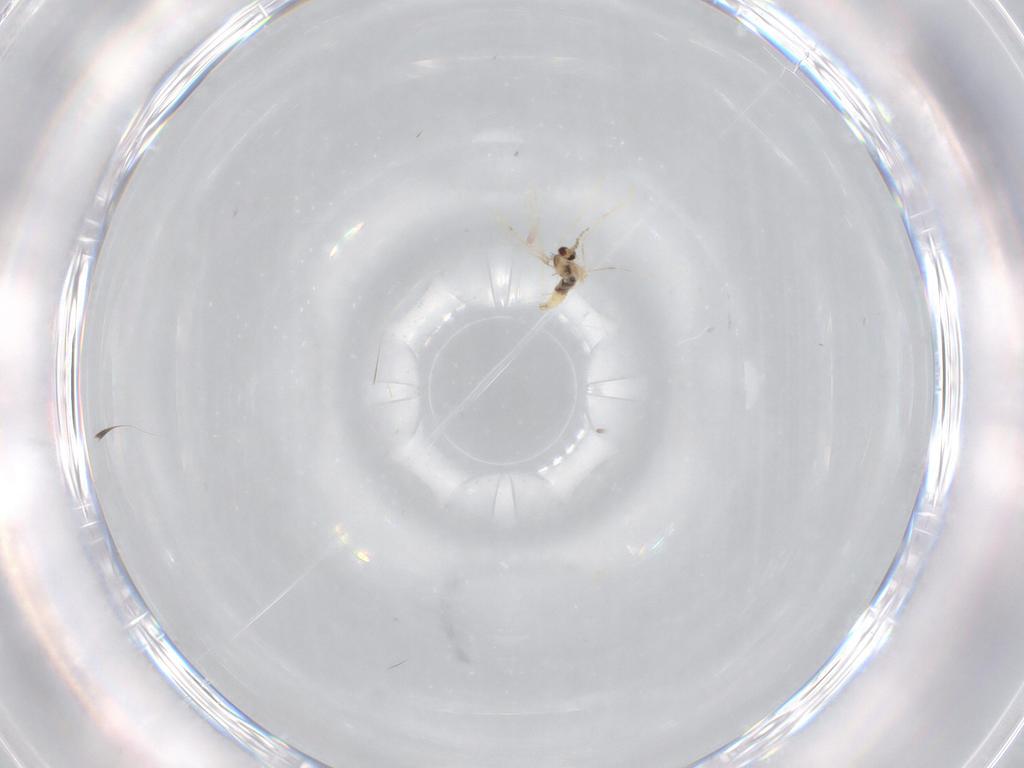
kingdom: Animalia
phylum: Arthropoda
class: Insecta
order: Diptera
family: Cecidomyiidae
